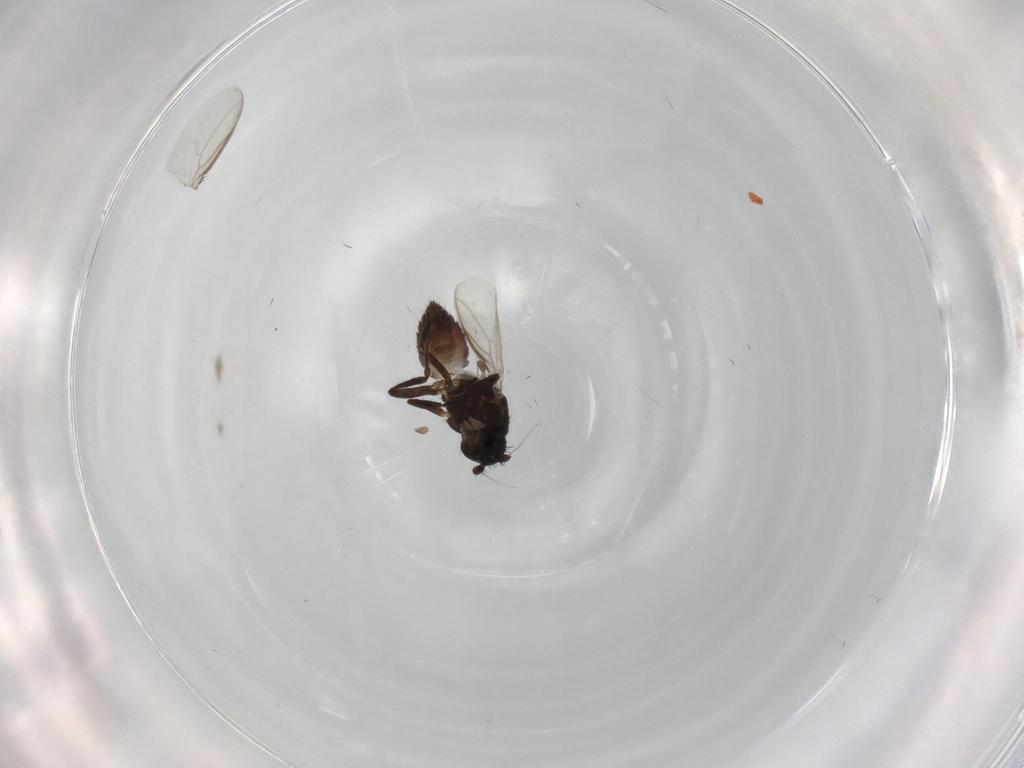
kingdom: Animalia
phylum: Arthropoda
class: Insecta
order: Diptera
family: Sphaeroceridae
